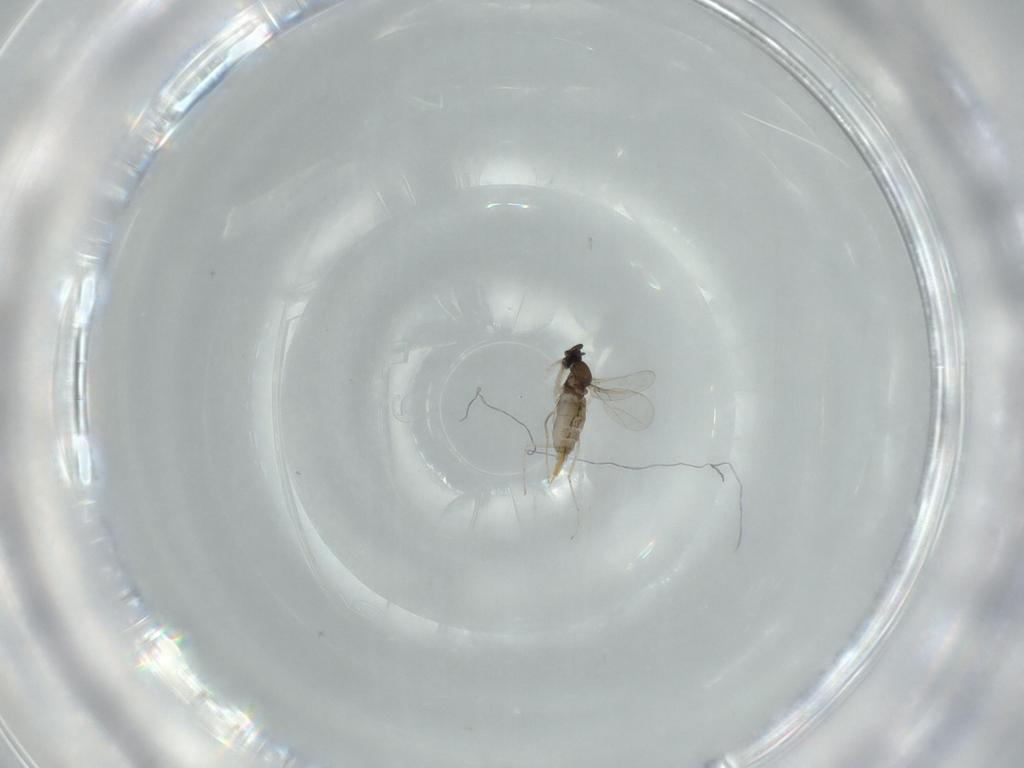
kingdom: Animalia
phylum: Arthropoda
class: Insecta
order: Diptera
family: Cecidomyiidae
